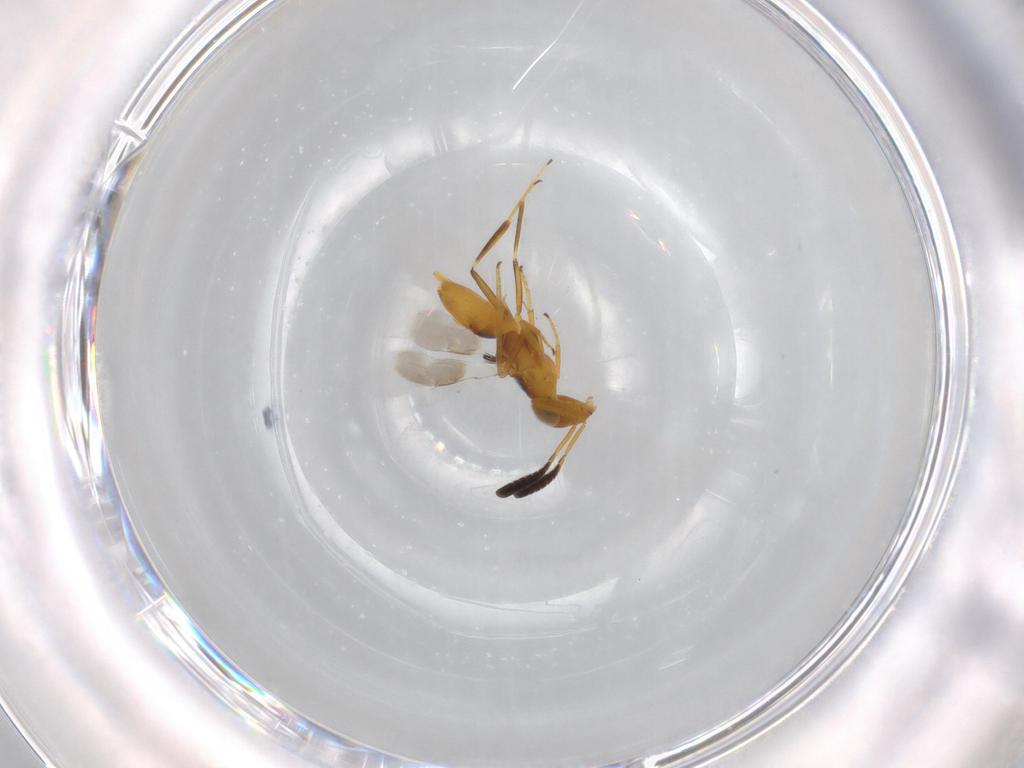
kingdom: Animalia
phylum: Arthropoda
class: Insecta
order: Hymenoptera
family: Encyrtidae
